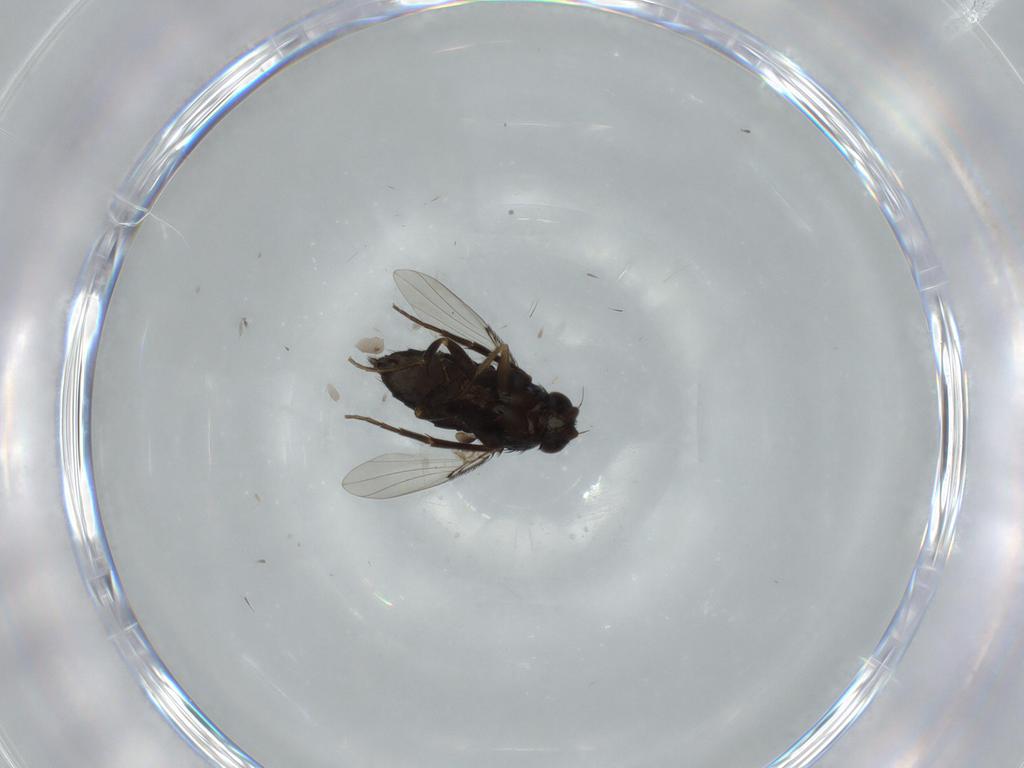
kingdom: Animalia
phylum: Arthropoda
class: Insecta
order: Diptera
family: Phoridae
